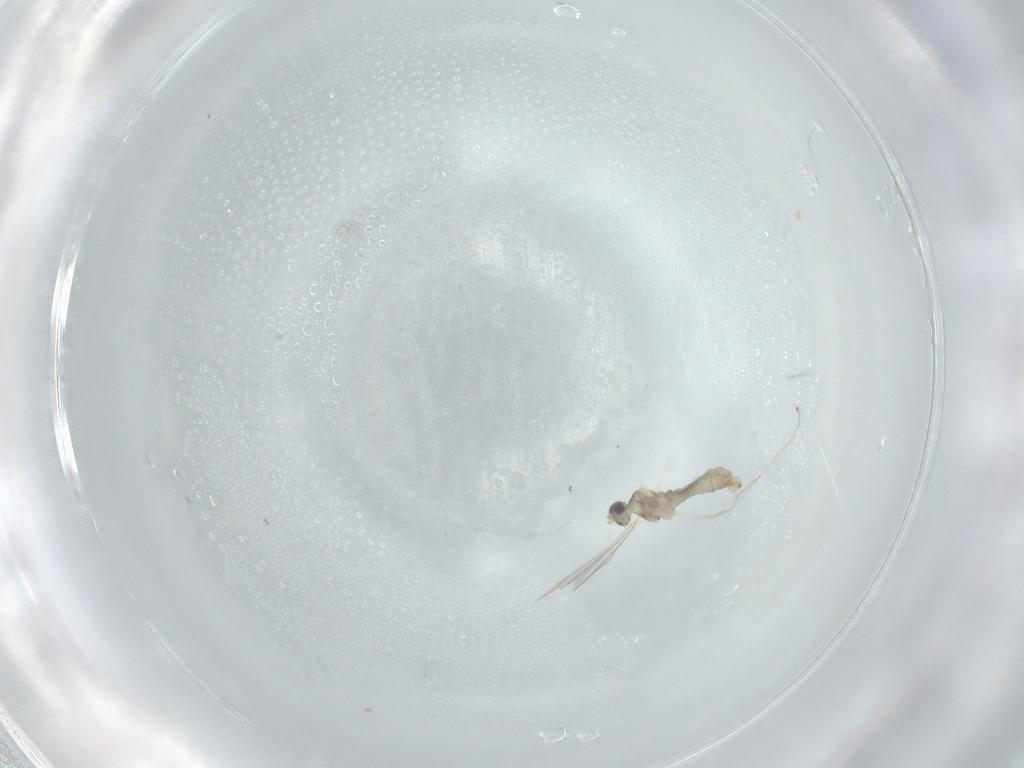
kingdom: Animalia
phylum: Arthropoda
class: Insecta
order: Diptera
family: Cecidomyiidae
